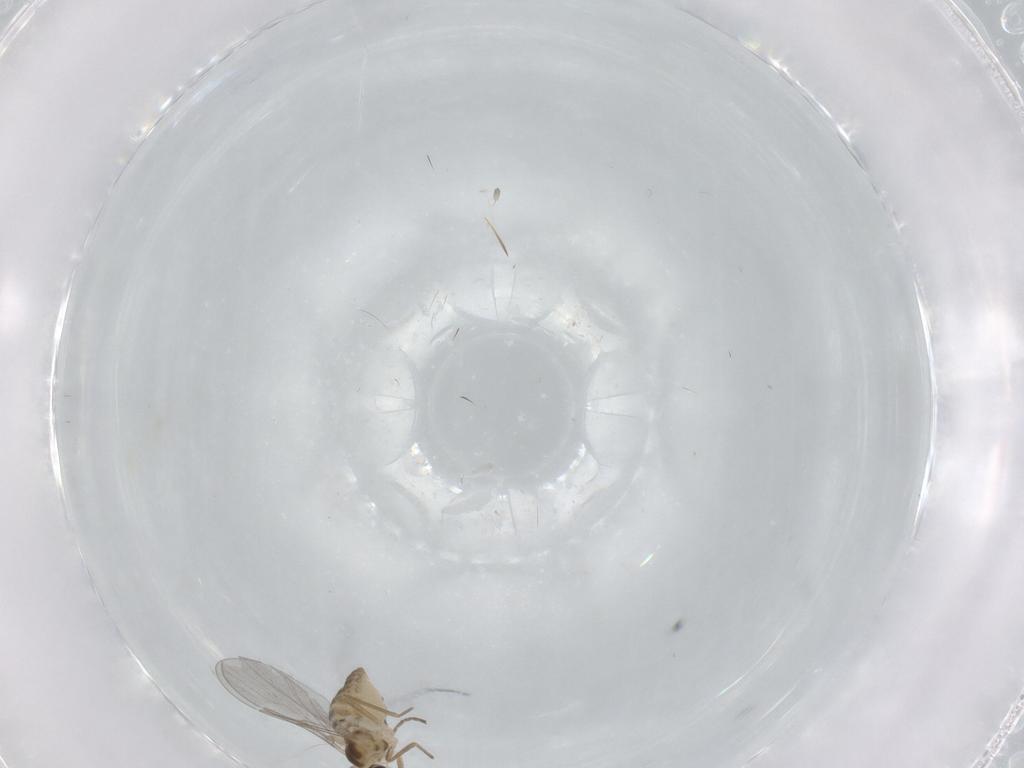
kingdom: Animalia
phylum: Arthropoda
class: Insecta
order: Diptera
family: Cecidomyiidae
